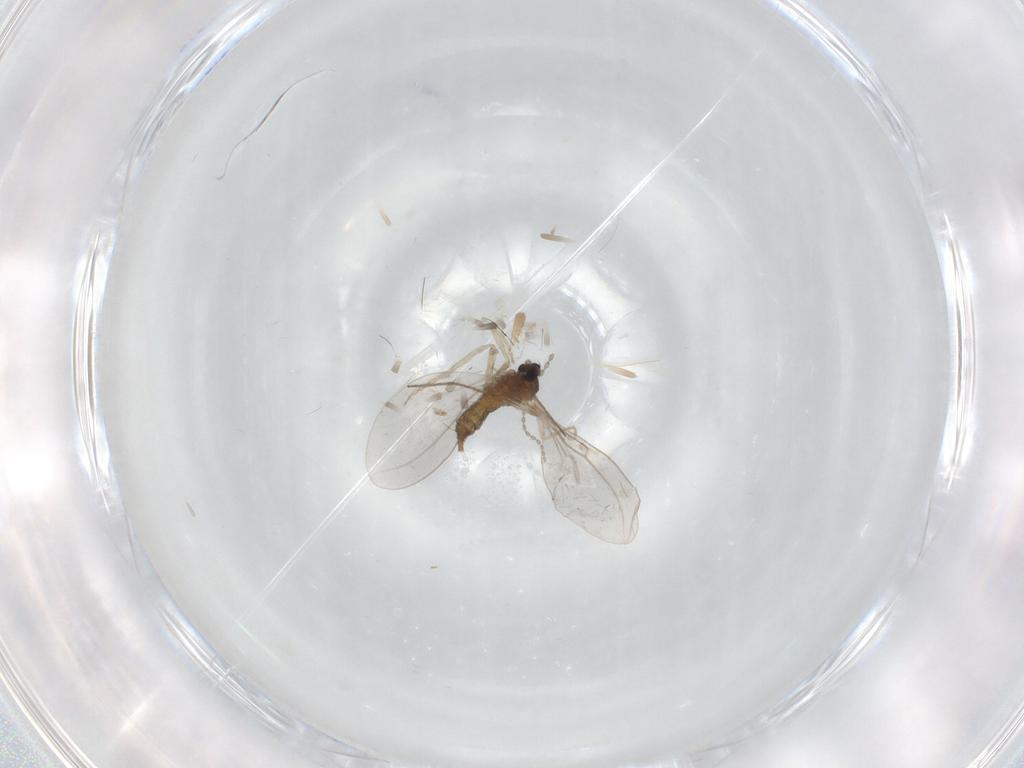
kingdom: Animalia
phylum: Arthropoda
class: Insecta
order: Diptera
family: Cecidomyiidae
